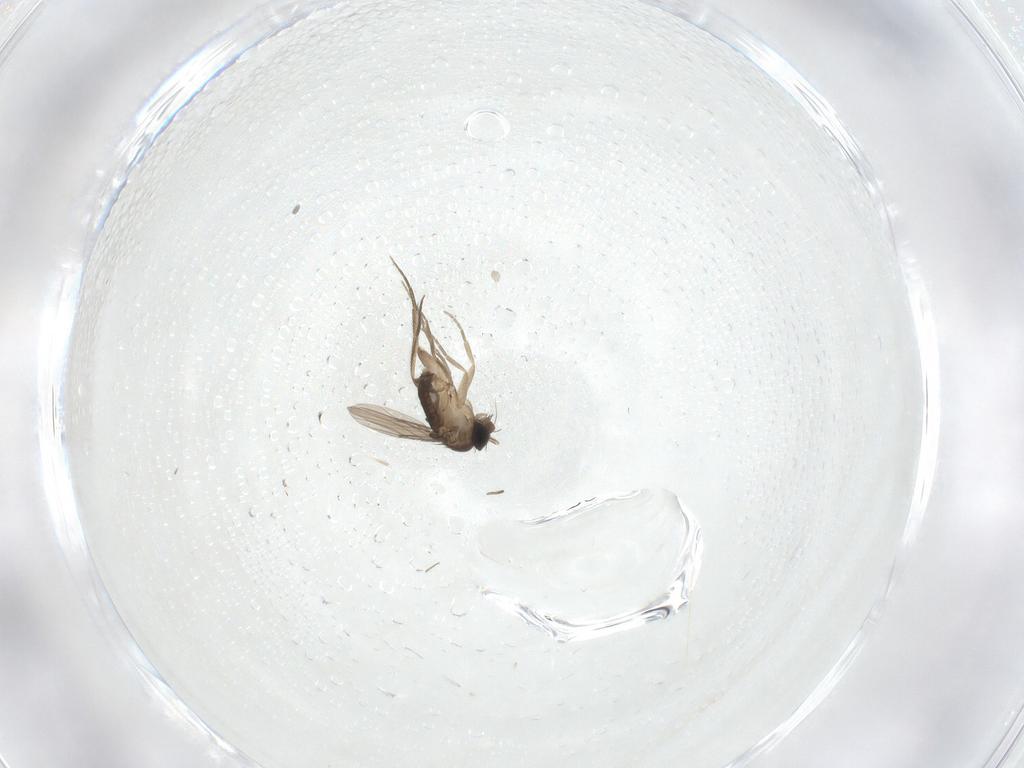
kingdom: Animalia
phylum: Arthropoda
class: Insecta
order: Diptera
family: Phoridae
